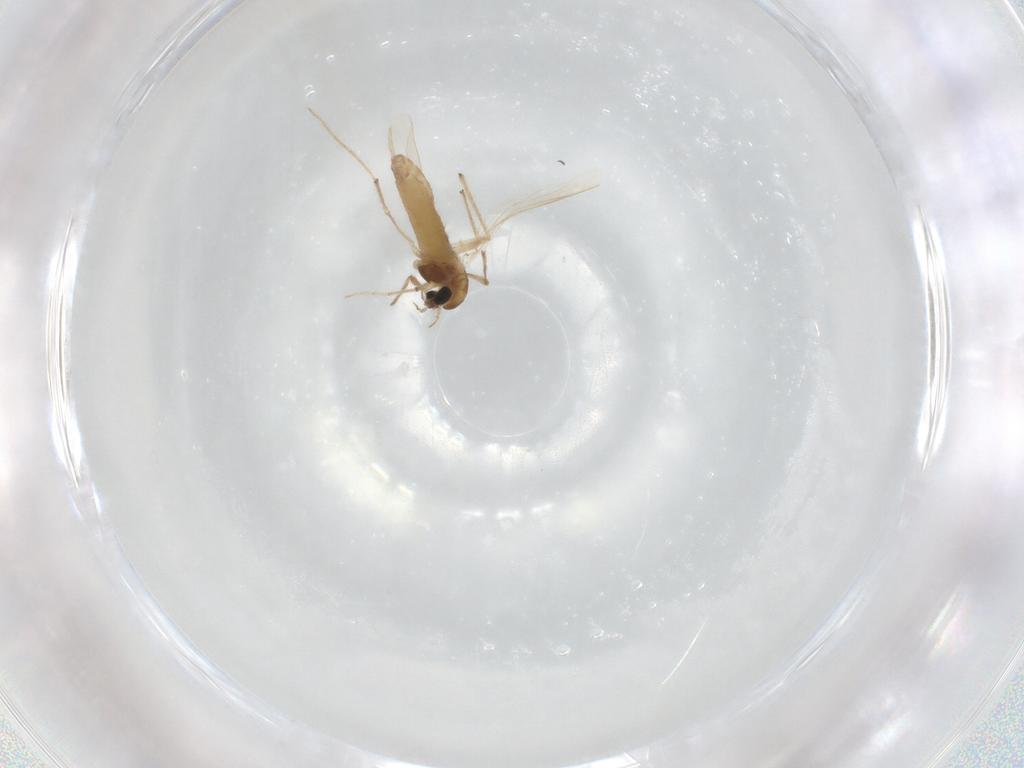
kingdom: Animalia
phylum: Arthropoda
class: Insecta
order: Diptera
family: Chironomidae
